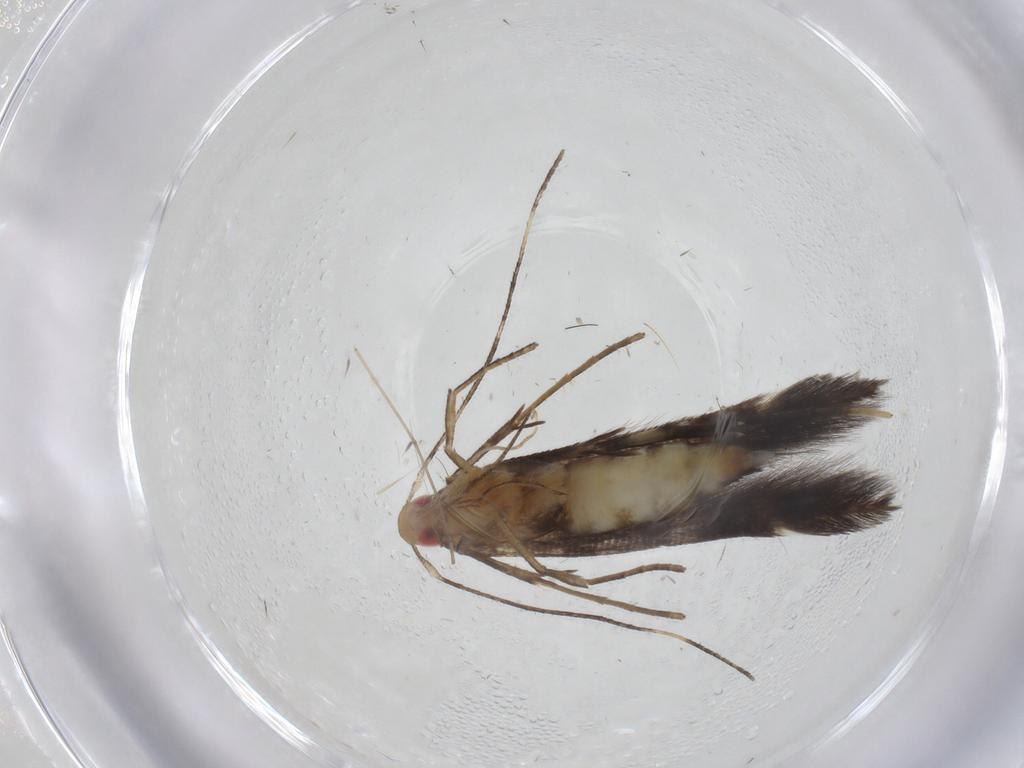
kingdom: Animalia
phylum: Arthropoda
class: Insecta
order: Lepidoptera
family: Cosmopterigidae
